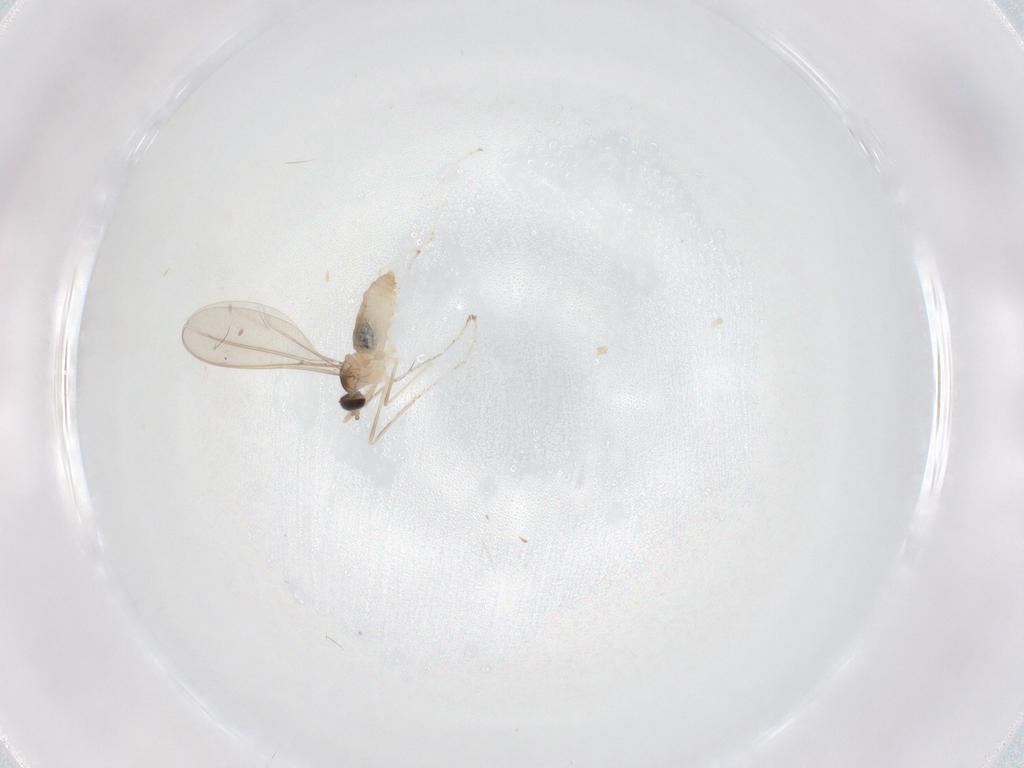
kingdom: Animalia
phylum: Arthropoda
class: Insecta
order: Diptera
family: Cecidomyiidae
